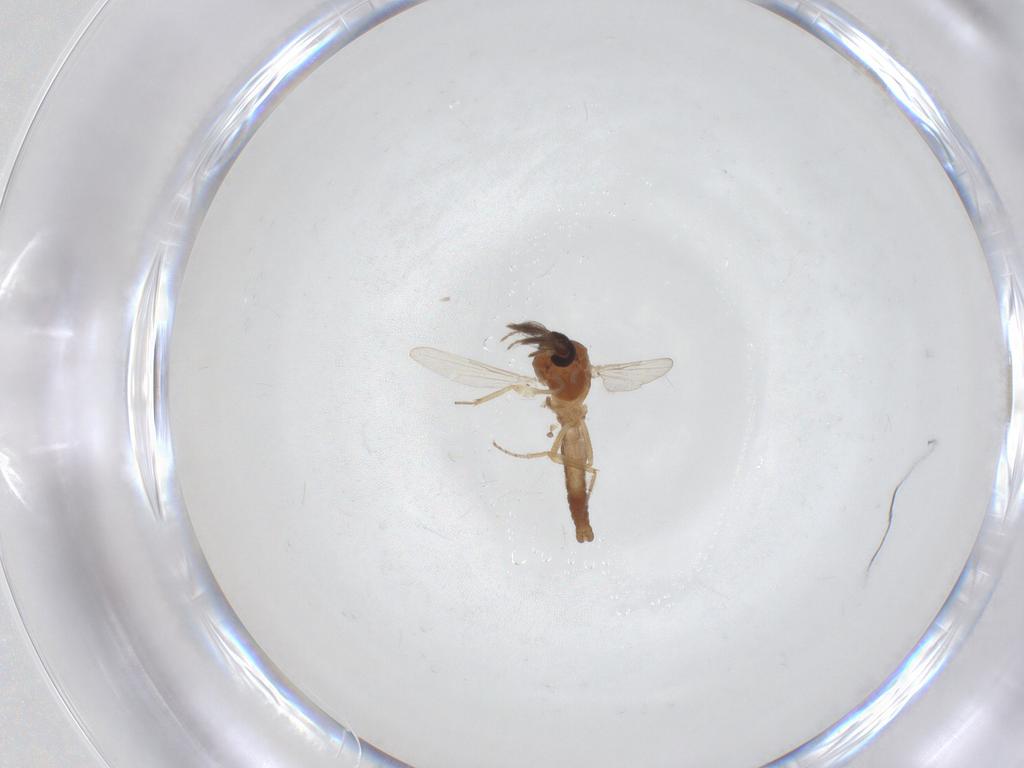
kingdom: Animalia
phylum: Arthropoda
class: Insecta
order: Diptera
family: Ceratopogonidae
